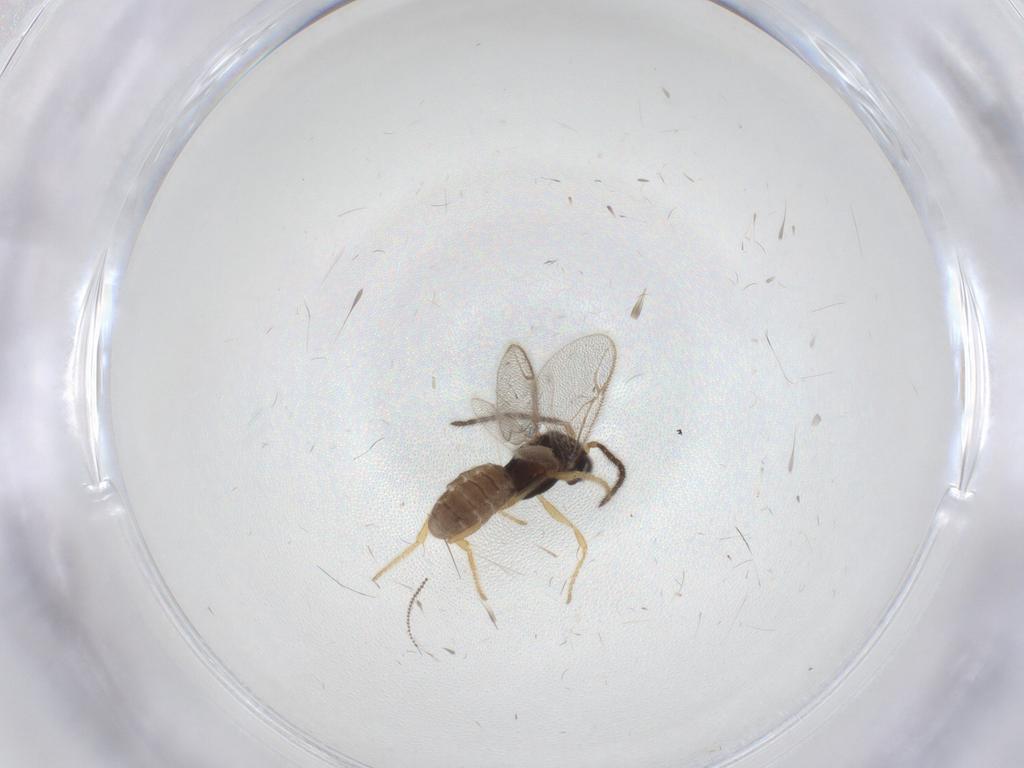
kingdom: Animalia
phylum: Arthropoda
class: Insecta
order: Hymenoptera
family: Dryinidae
